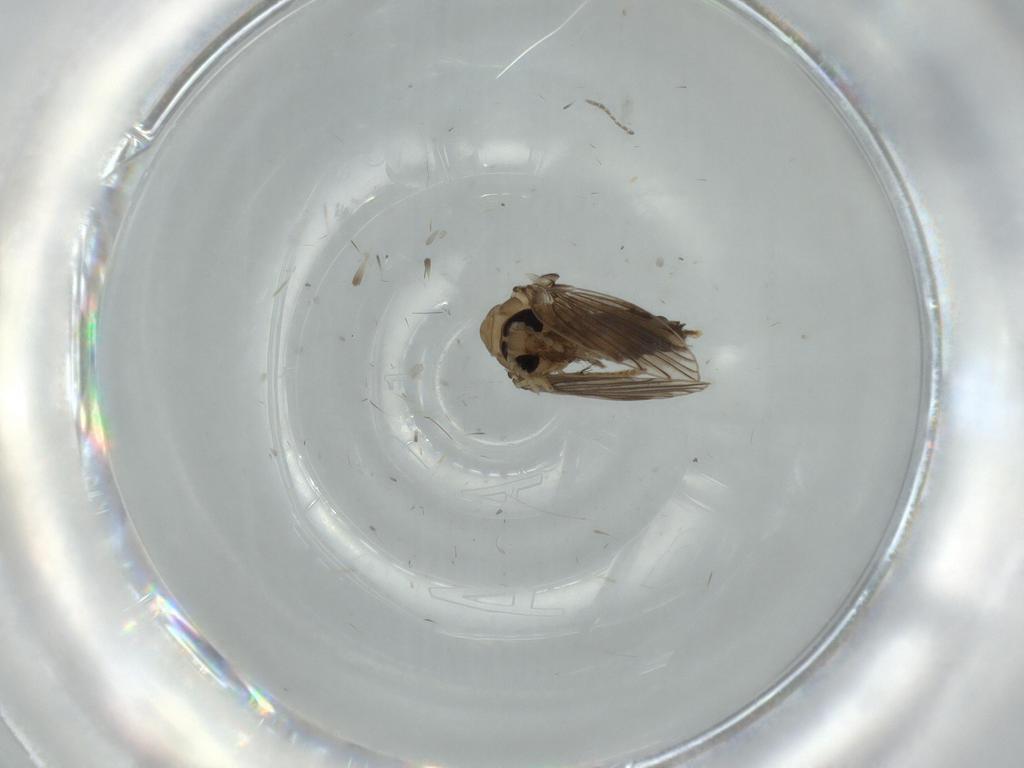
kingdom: Animalia
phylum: Arthropoda
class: Insecta
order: Diptera
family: Psychodidae
